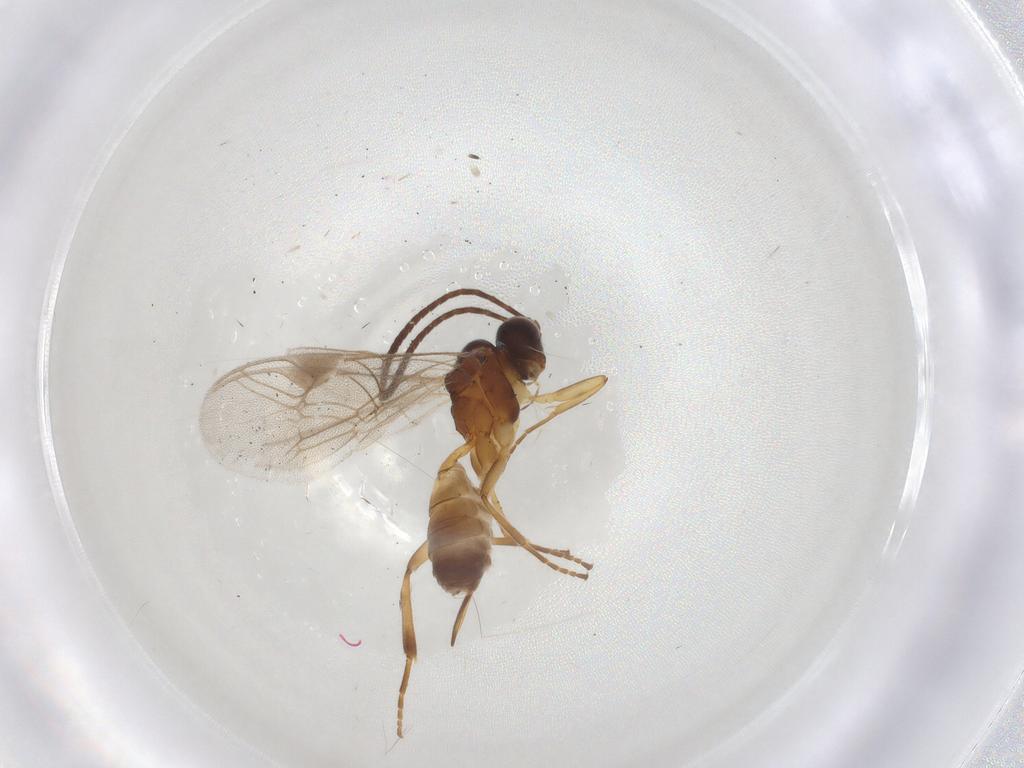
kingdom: Animalia
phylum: Arthropoda
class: Insecta
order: Hymenoptera
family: Ichneumonidae
